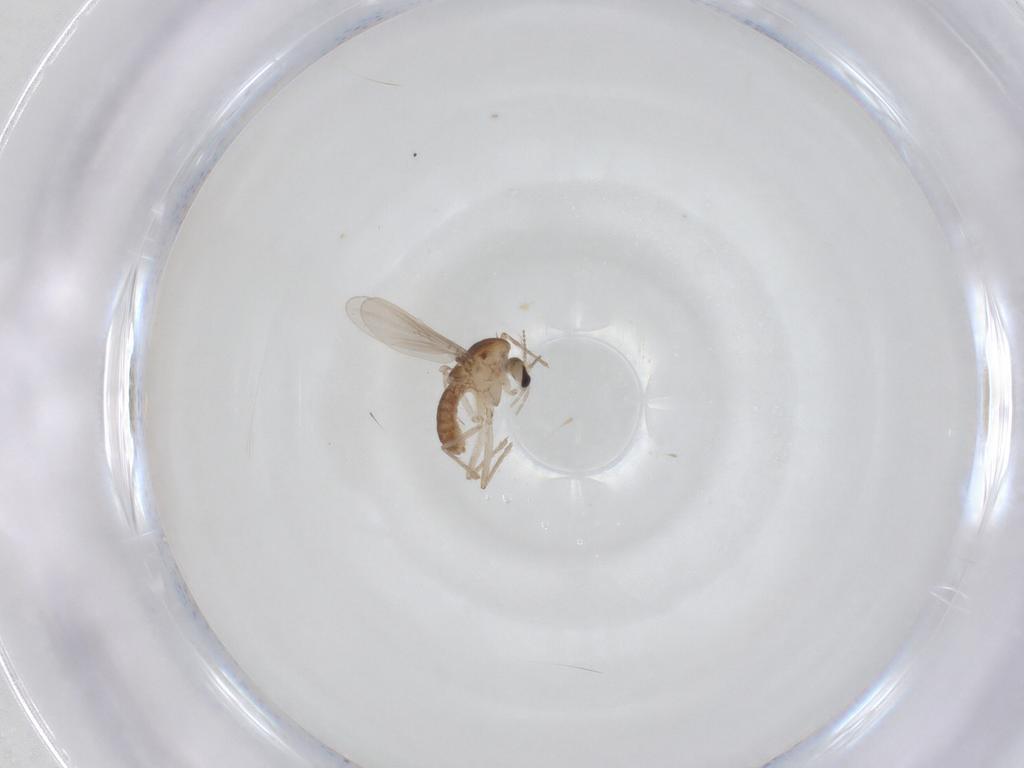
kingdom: Animalia
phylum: Arthropoda
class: Insecta
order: Diptera
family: Chironomidae
